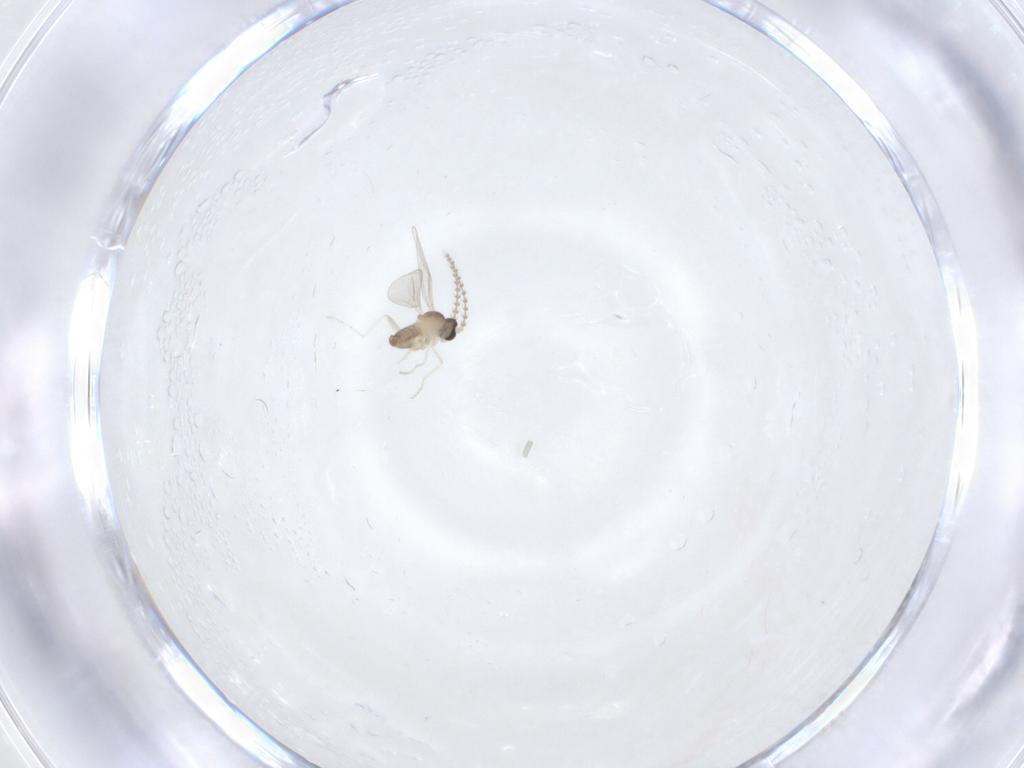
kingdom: Animalia
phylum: Arthropoda
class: Insecta
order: Diptera
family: Cecidomyiidae
